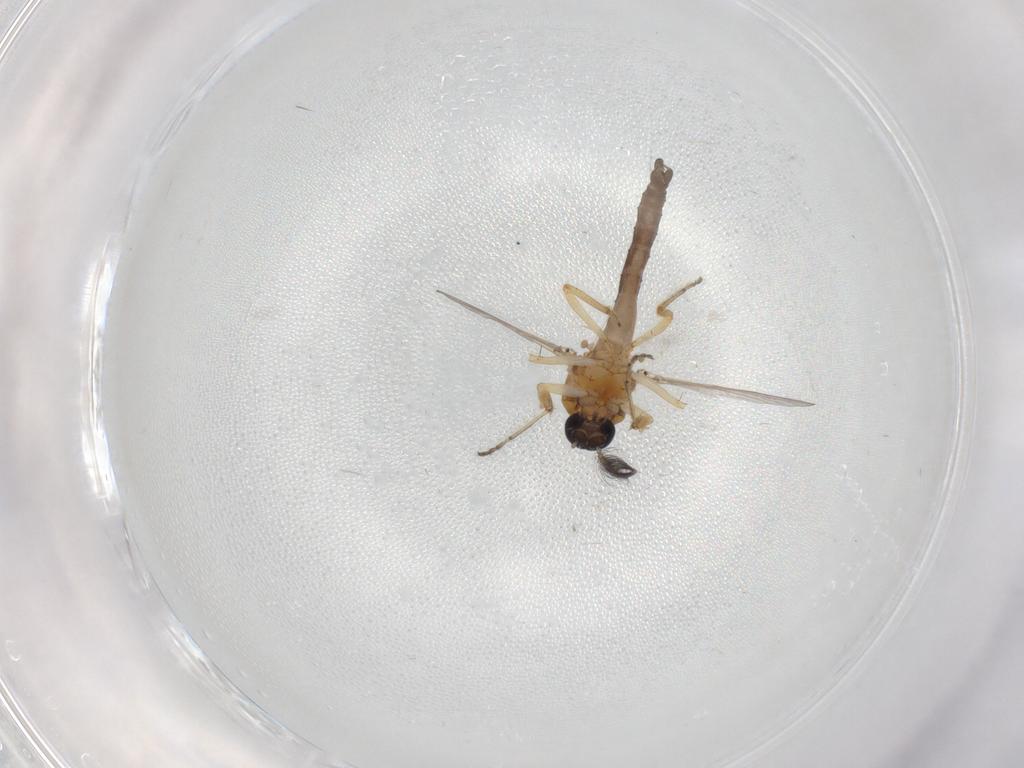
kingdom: Animalia
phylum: Arthropoda
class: Insecta
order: Diptera
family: Ceratopogonidae
